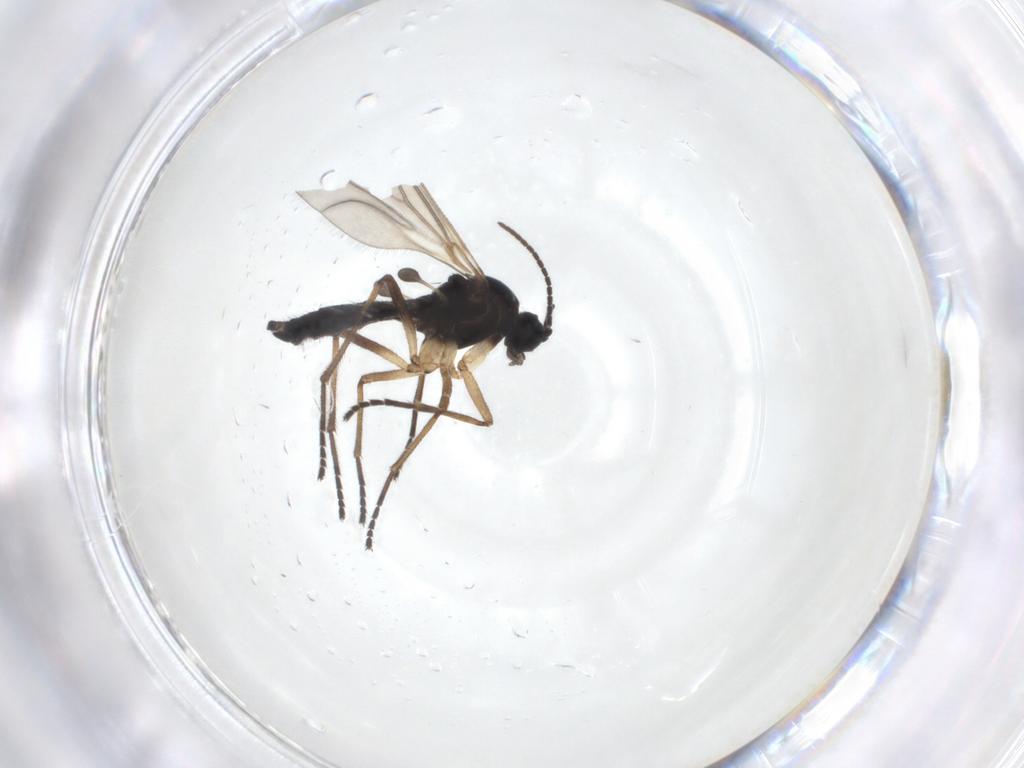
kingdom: Animalia
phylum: Arthropoda
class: Insecta
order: Diptera
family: Sciaridae
